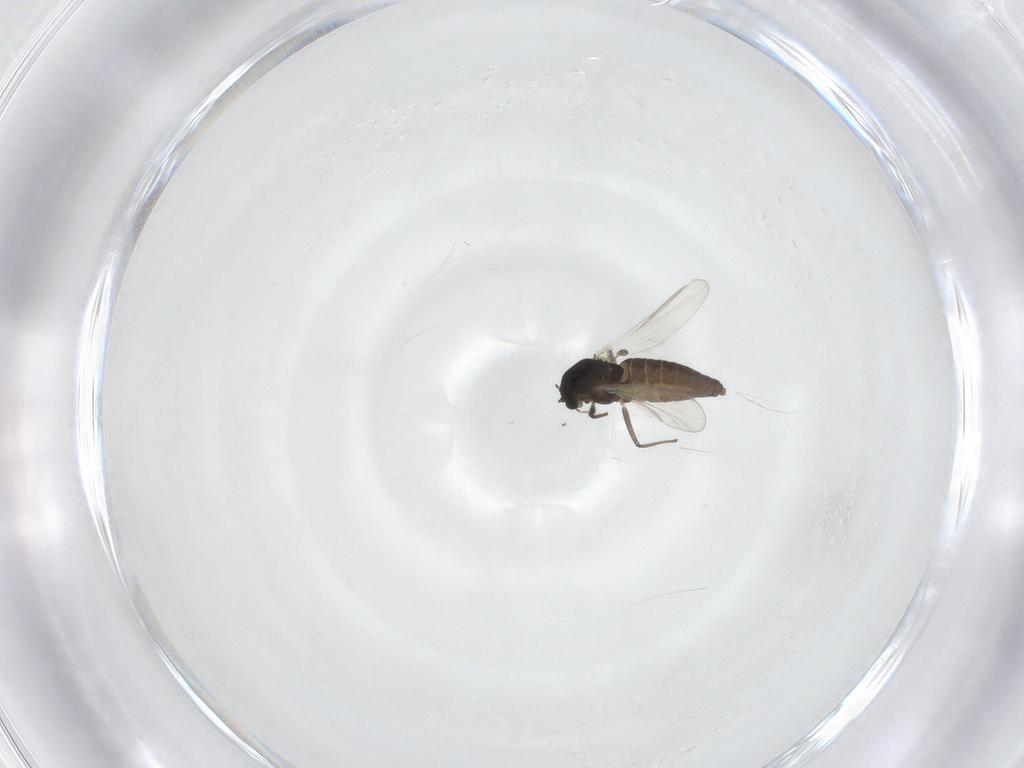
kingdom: Animalia
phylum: Arthropoda
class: Insecta
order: Diptera
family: Chironomidae
